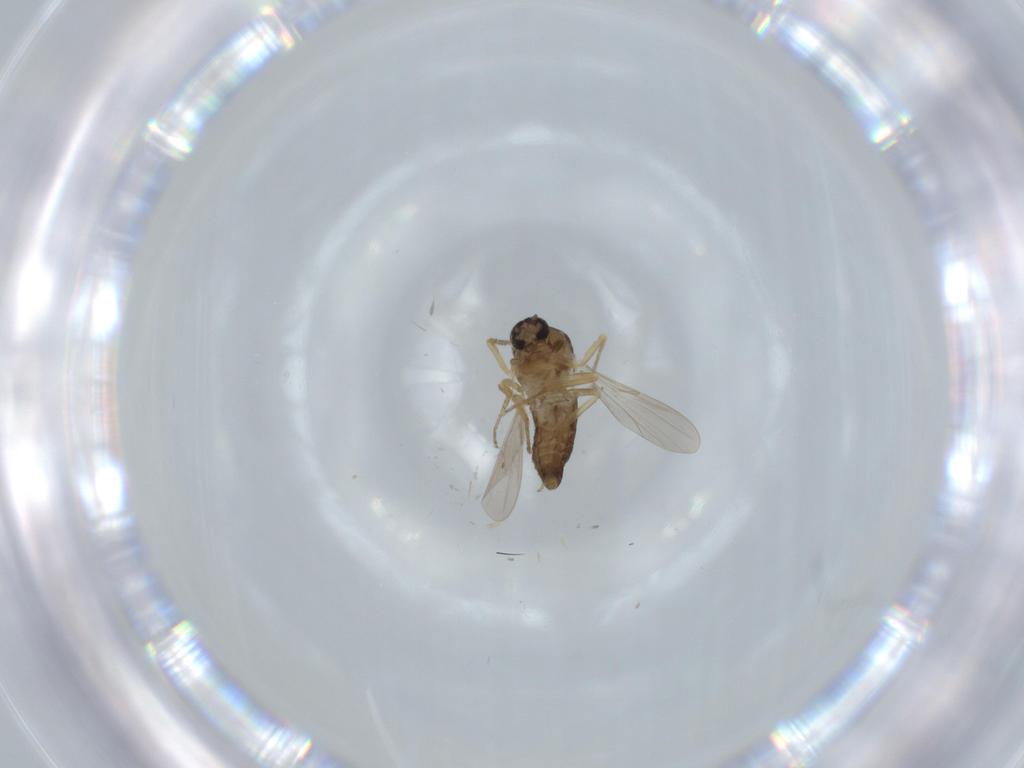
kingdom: Animalia
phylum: Arthropoda
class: Insecta
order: Diptera
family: Ceratopogonidae
